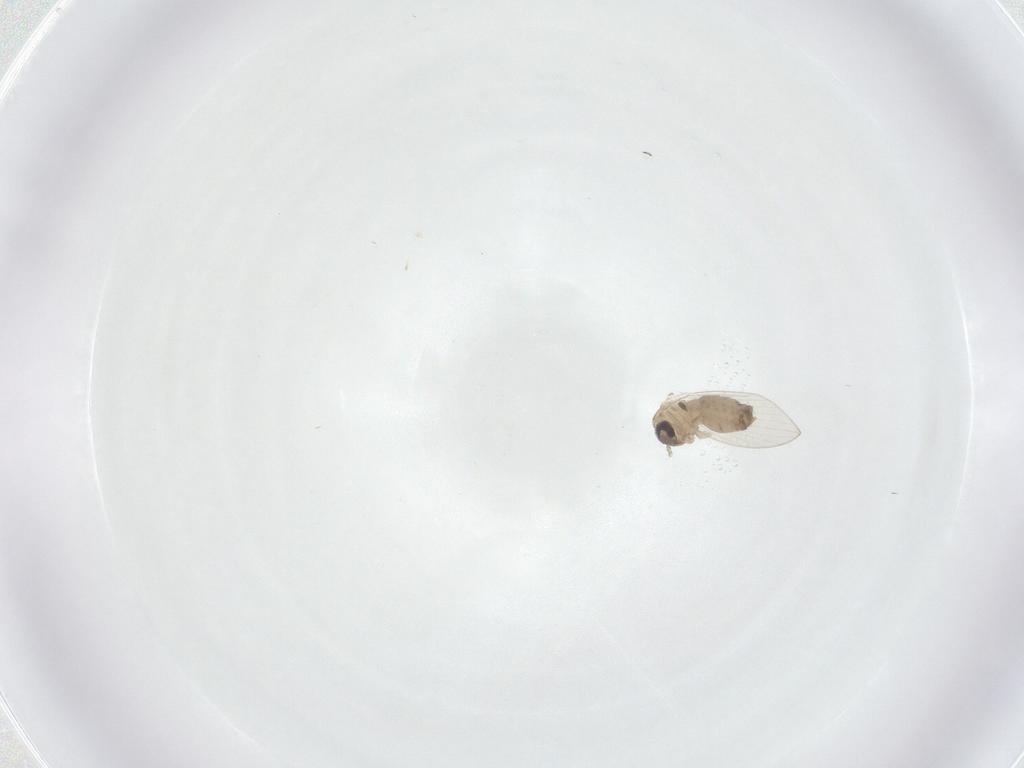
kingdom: Animalia
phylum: Arthropoda
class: Insecta
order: Diptera
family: Psychodidae
